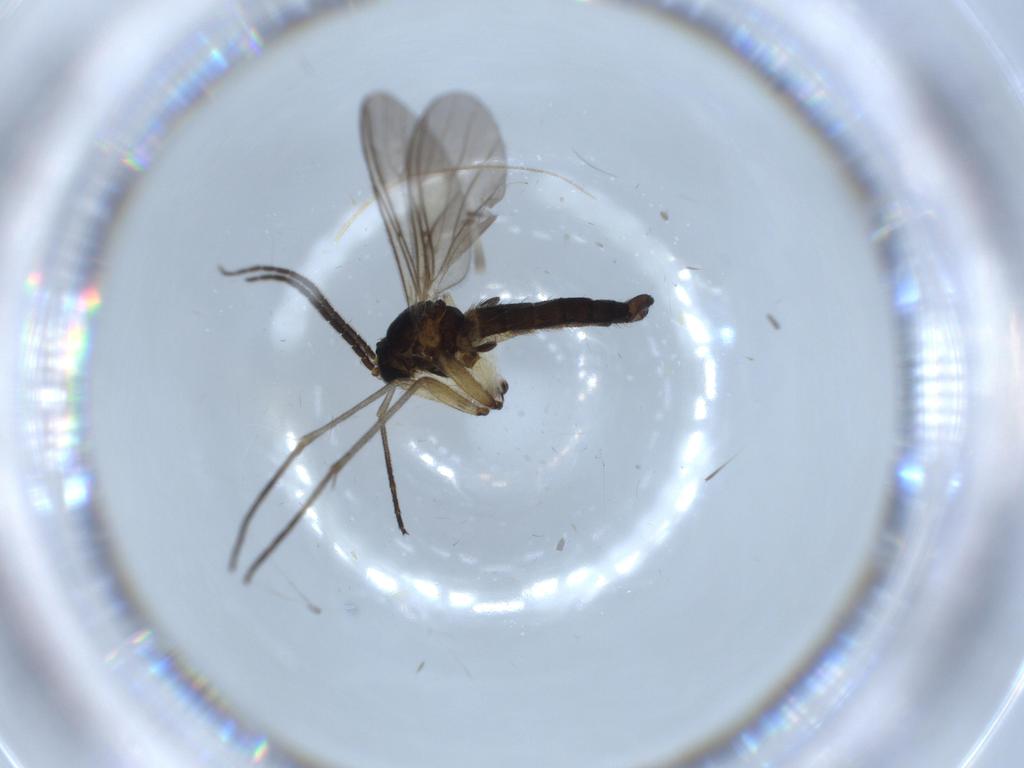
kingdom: Animalia
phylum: Arthropoda
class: Insecta
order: Diptera
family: Sciaridae
